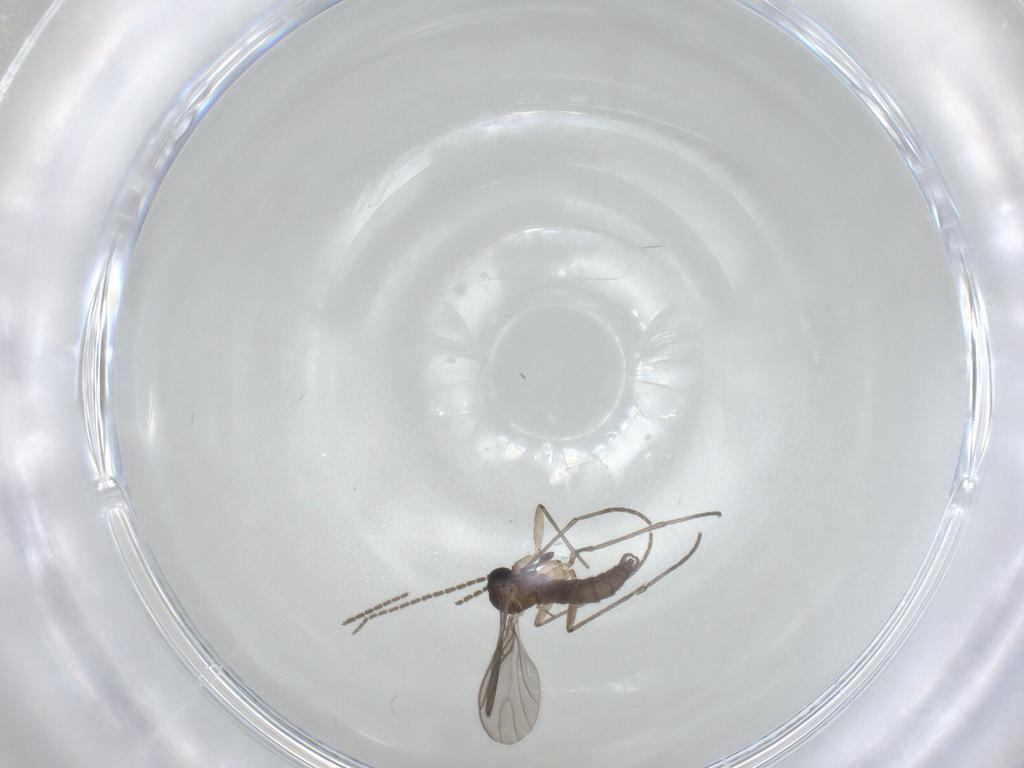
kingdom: Animalia
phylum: Arthropoda
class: Insecta
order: Diptera
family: Sciaridae
